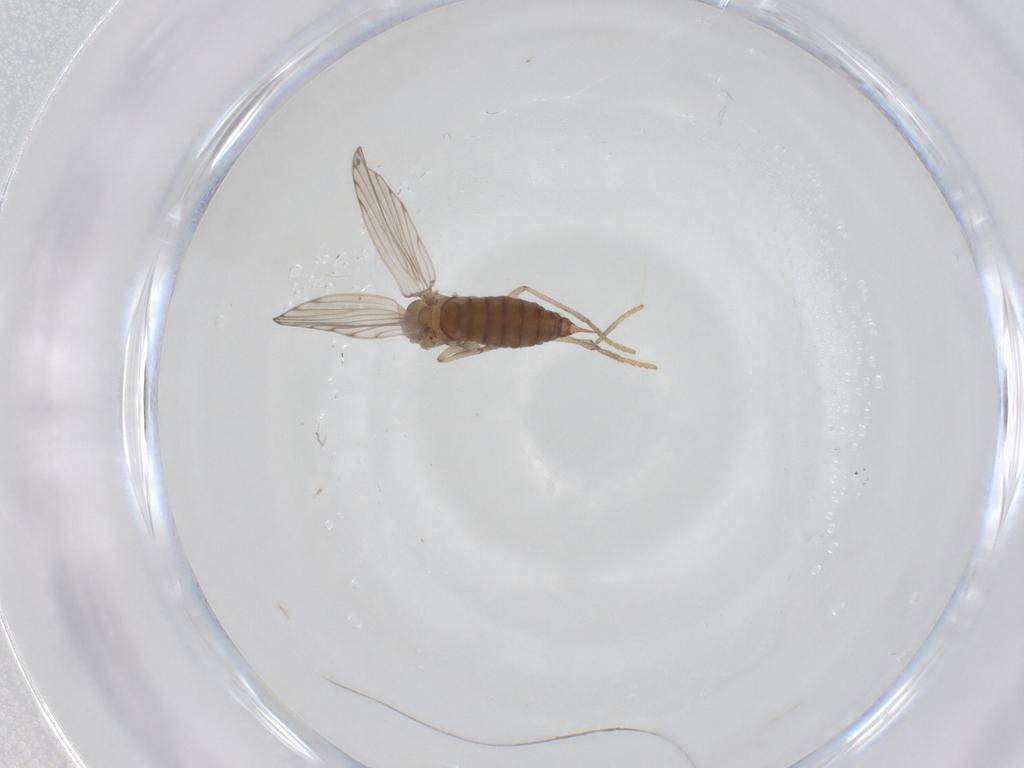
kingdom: Animalia
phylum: Arthropoda
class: Insecta
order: Diptera
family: Psychodidae
